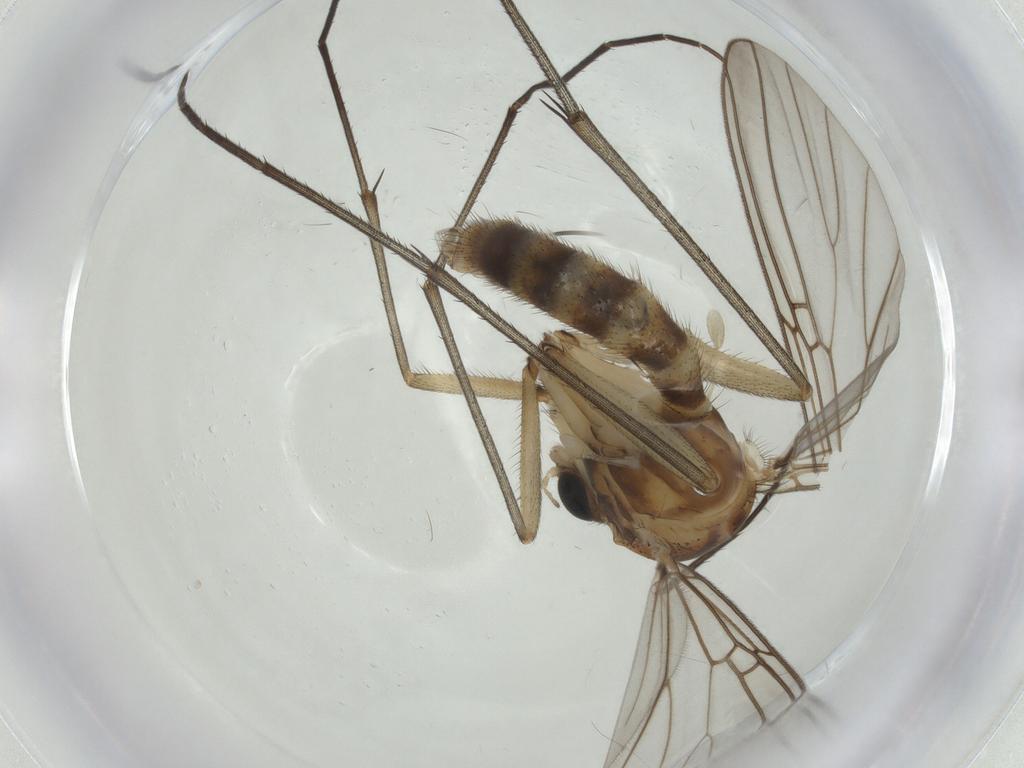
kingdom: Animalia
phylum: Arthropoda
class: Insecta
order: Diptera
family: Mycetophilidae
